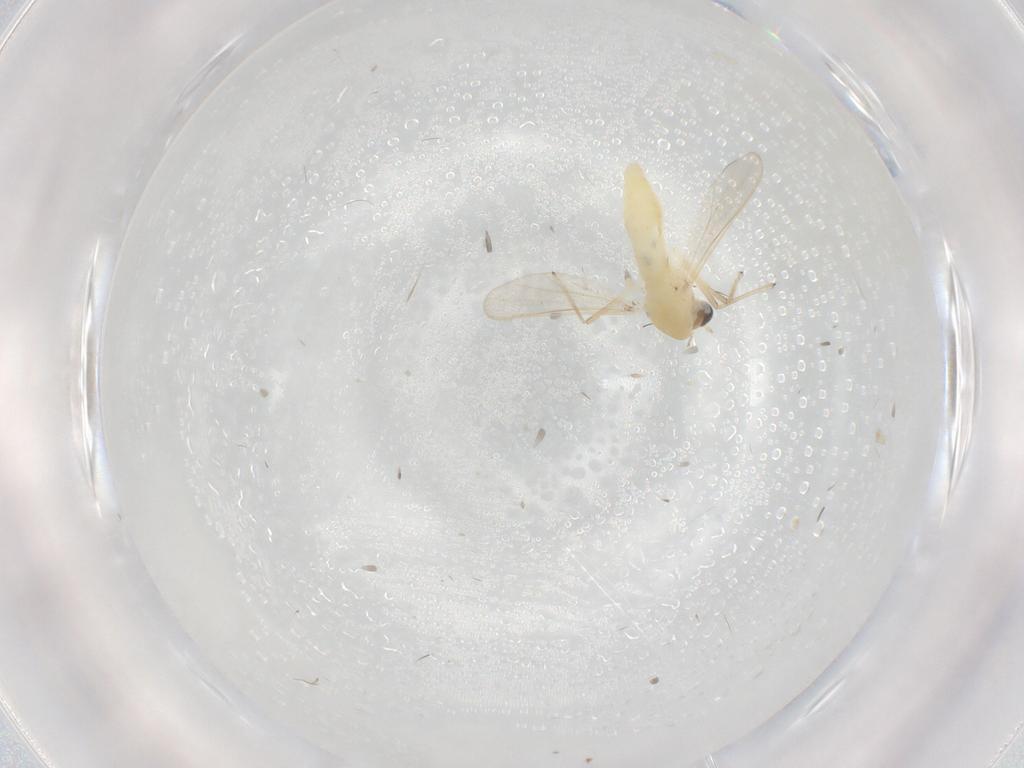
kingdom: Animalia
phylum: Arthropoda
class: Insecta
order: Diptera
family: Chironomidae
